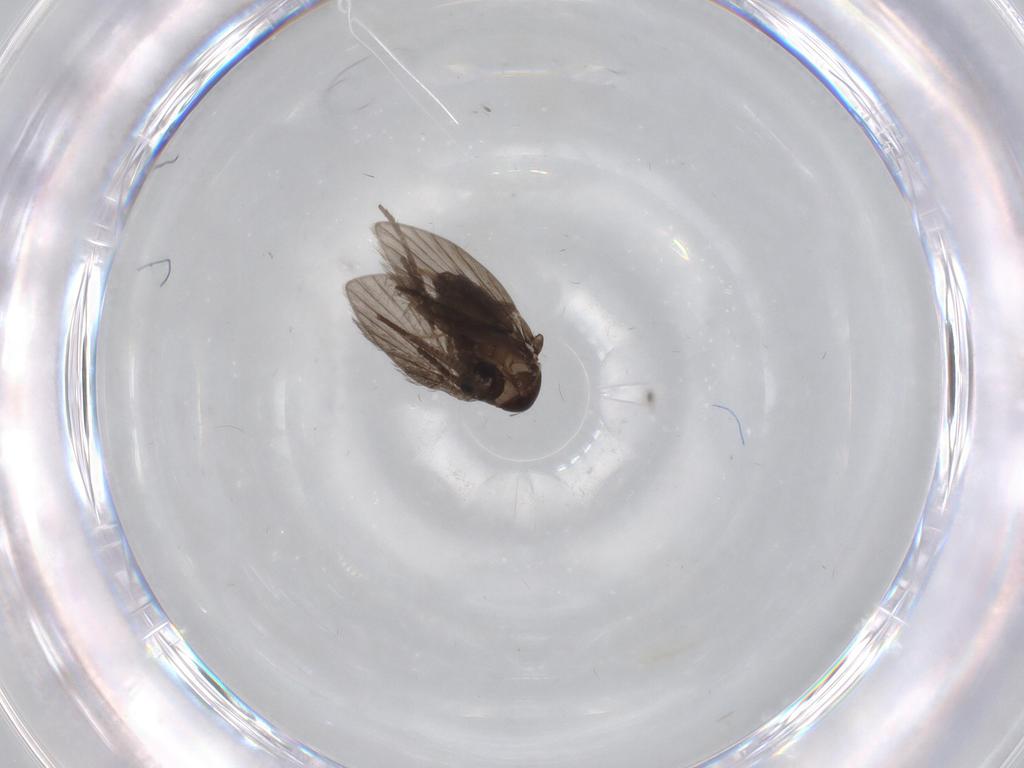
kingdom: Animalia
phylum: Arthropoda
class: Insecta
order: Diptera
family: Psychodidae
